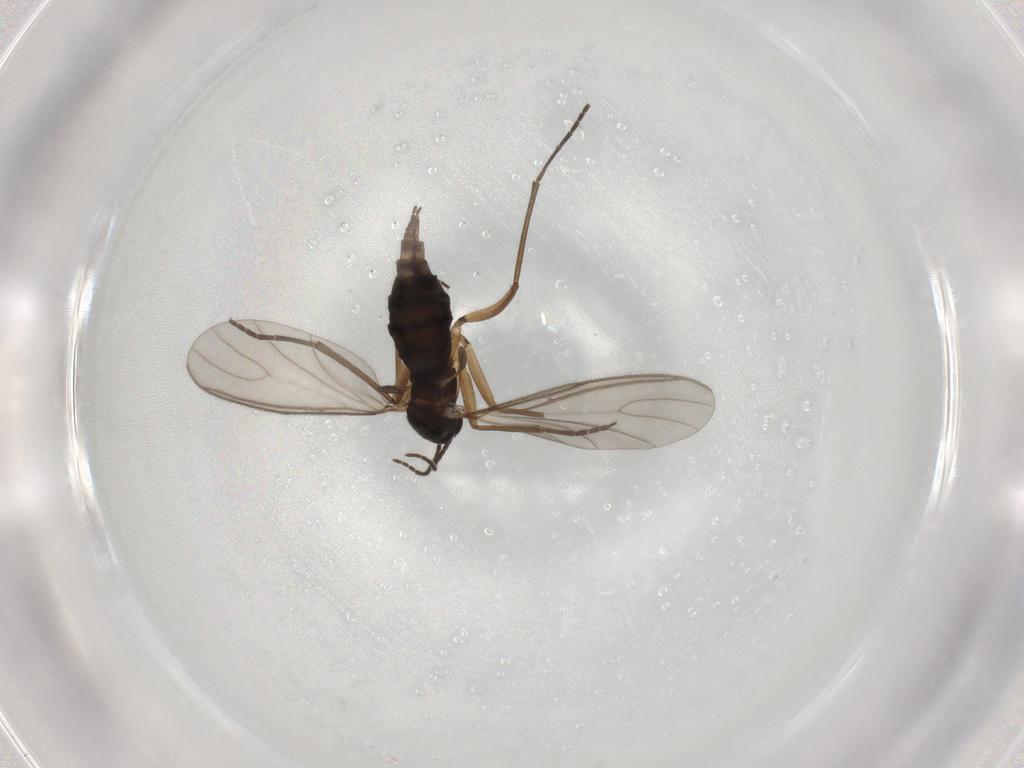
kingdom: Animalia
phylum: Arthropoda
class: Insecta
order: Diptera
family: Sciaridae
